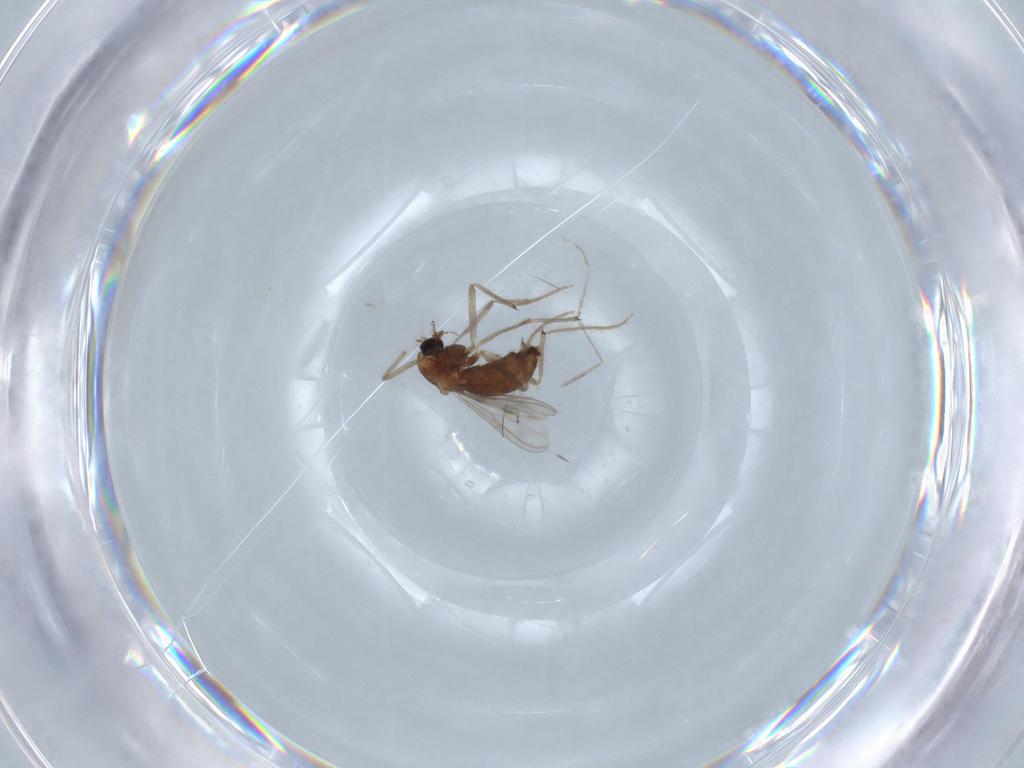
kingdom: Animalia
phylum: Arthropoda
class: Insecta
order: Diptera
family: Chironomidae
